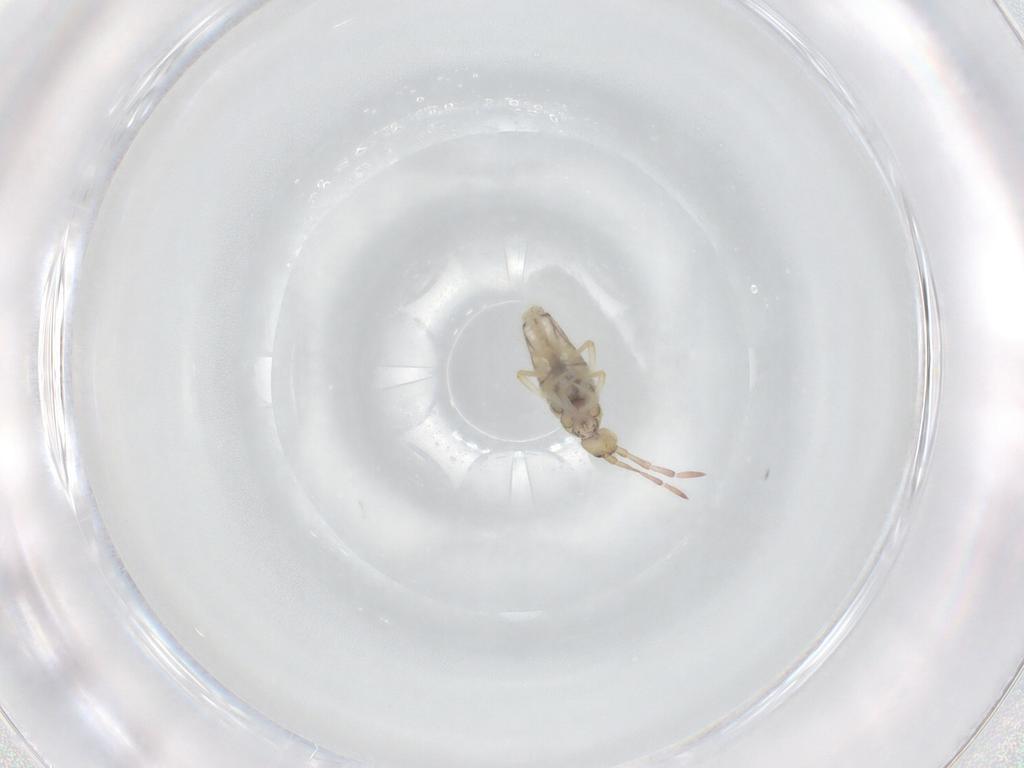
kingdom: Animalia
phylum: Arthropoda
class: Collembola
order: Entomobryomorpha
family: Entomobryidae
